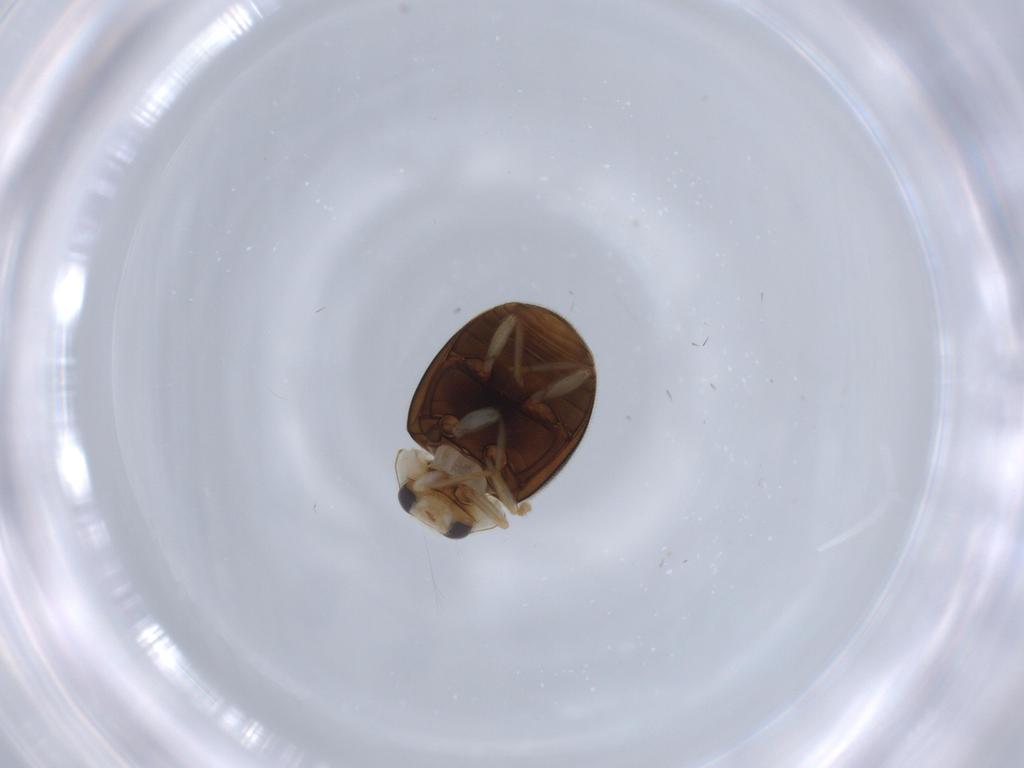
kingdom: Animalia
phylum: Arthropoda
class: Insecta
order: Coleoptera
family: Coccinellidae
